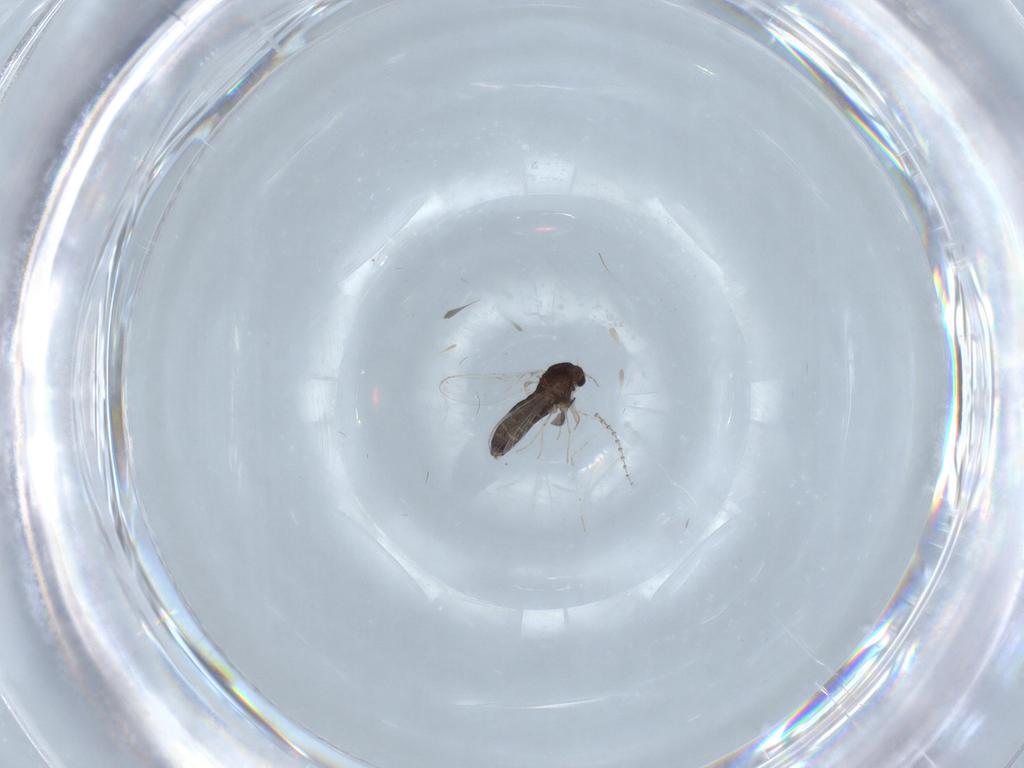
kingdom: Animalia
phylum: Arthropoda
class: Insecta
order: Diptera
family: Chironomidae
